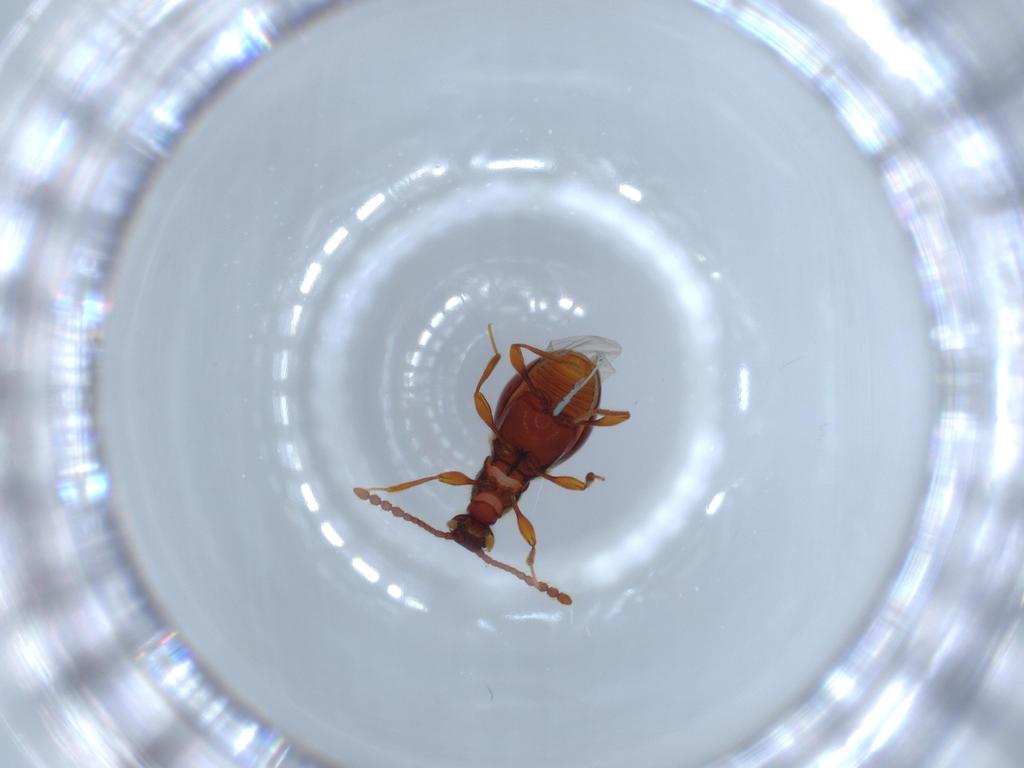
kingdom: Animalia
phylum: Arthropoda
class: Insecta
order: Coleoptera
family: Staphylinidae
